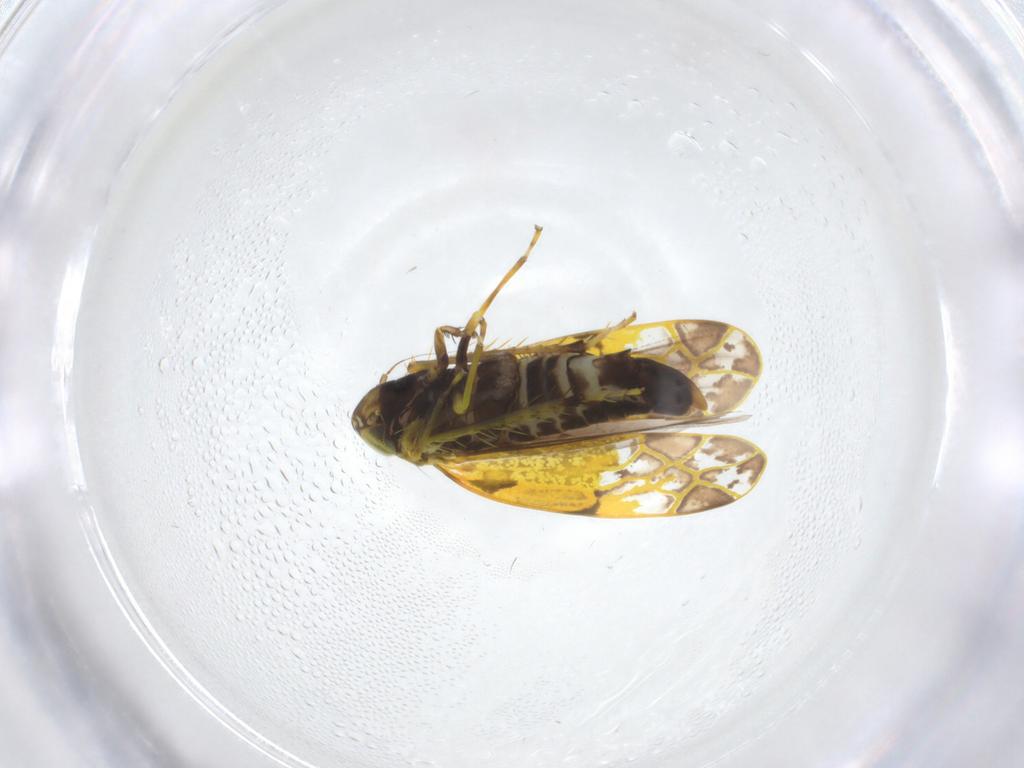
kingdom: Animalia
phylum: Arthropoda
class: Insecta
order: Hemiptera
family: Cicadellidae
